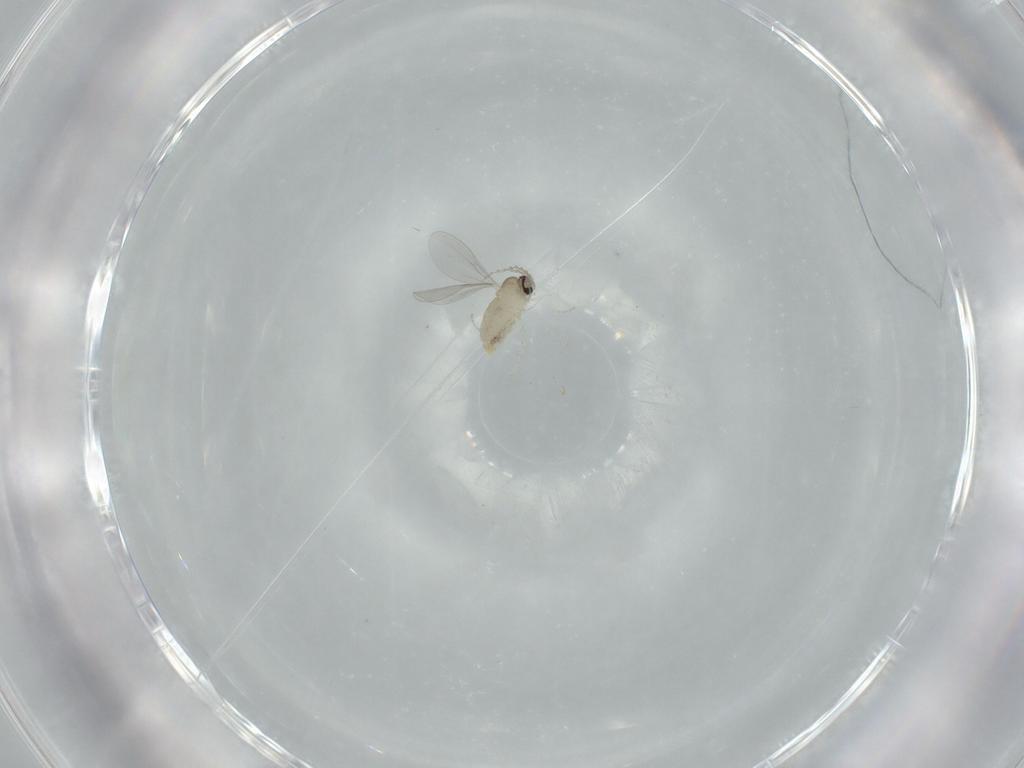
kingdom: Animalia
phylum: Arthropoda
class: Insecta
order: Diptera
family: Cecidomyiidae
